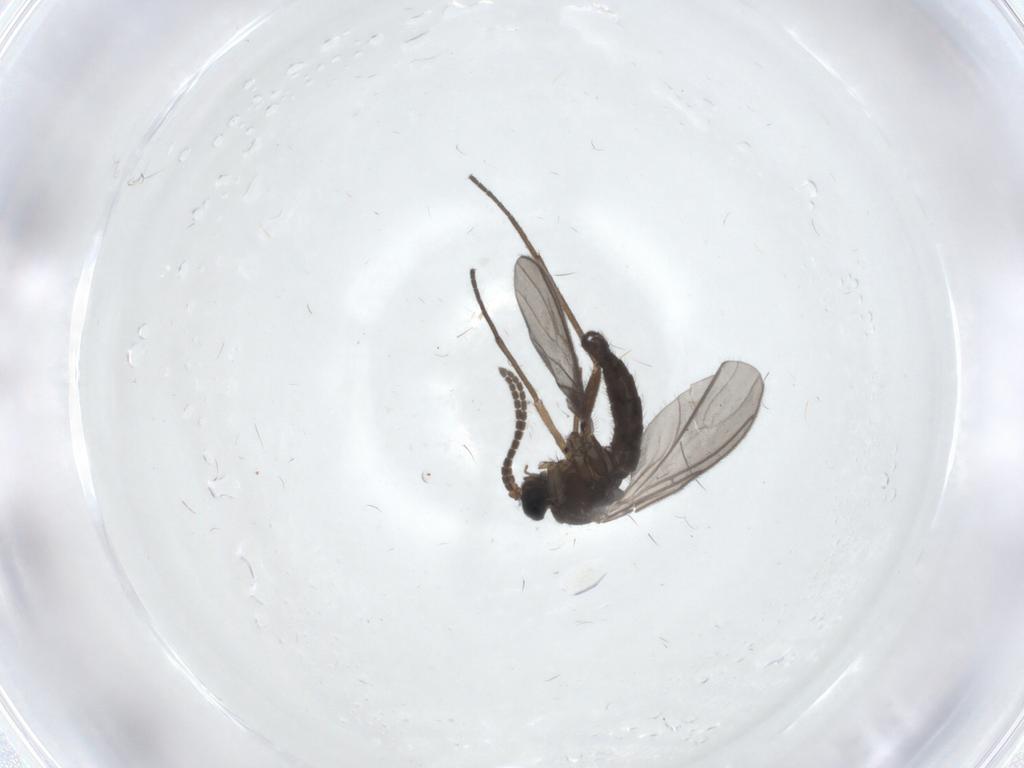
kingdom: Animalia
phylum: Arthropoda
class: Insecta
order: Diptera
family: Sciaridae
